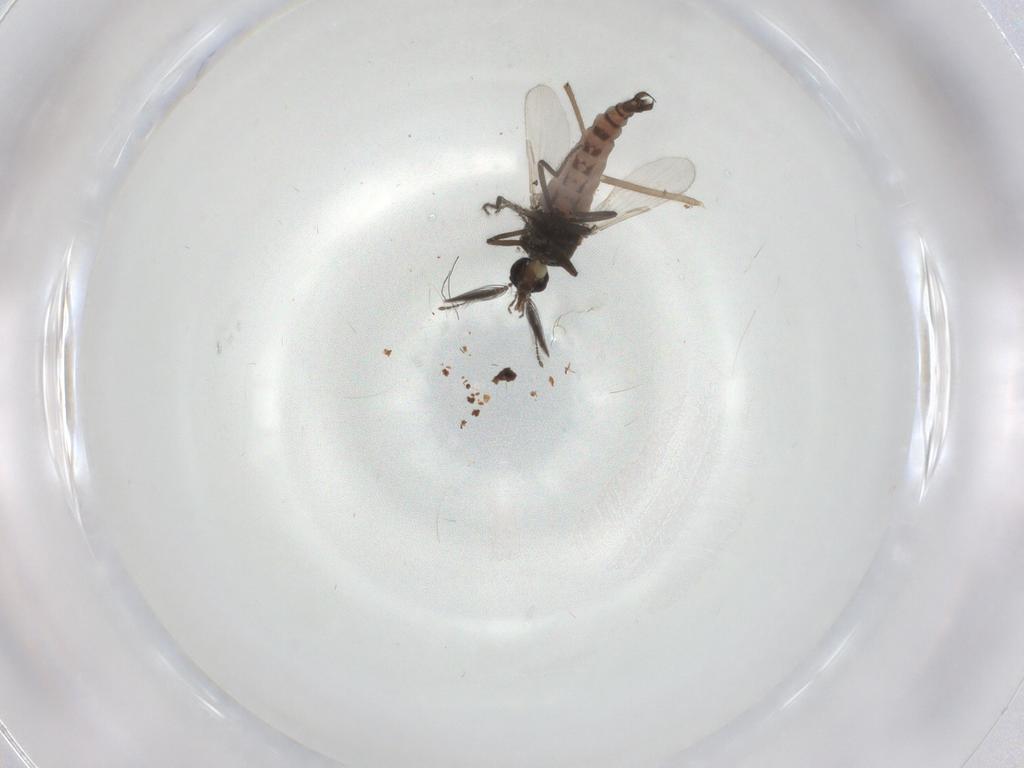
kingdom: Animalia
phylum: Arthropoda
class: Insecta
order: Diptera
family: Ceratopogonidae
